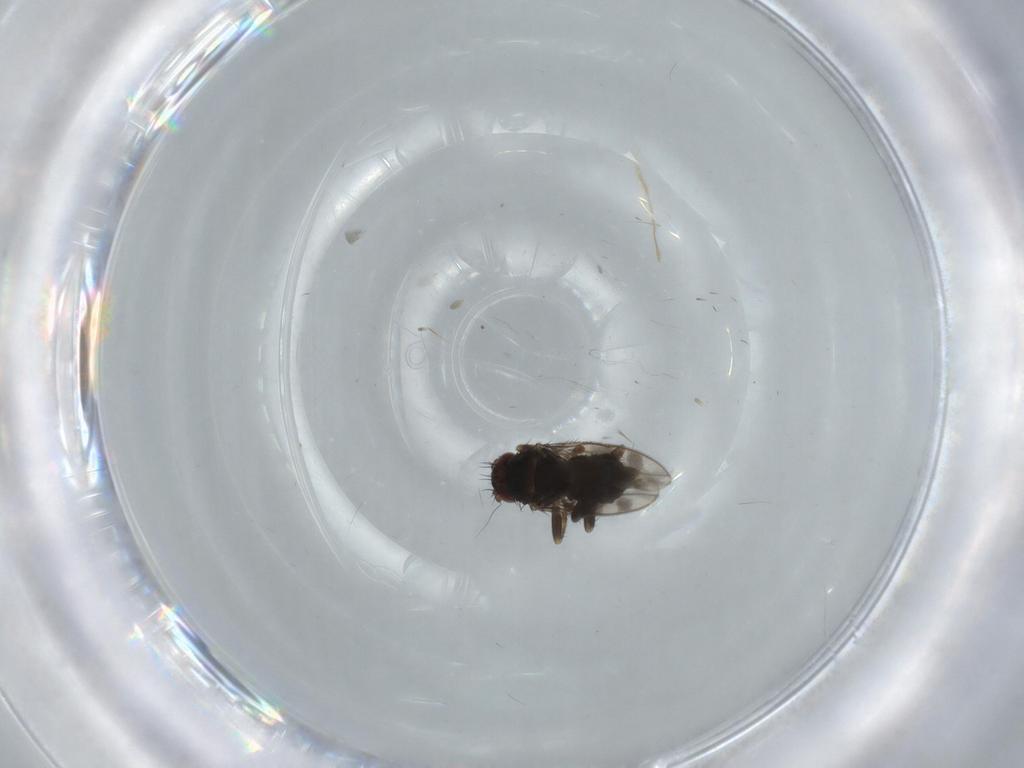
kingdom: Animalia
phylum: Arthropoda
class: Insecta
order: Diptera
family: Sphaeroceridae
